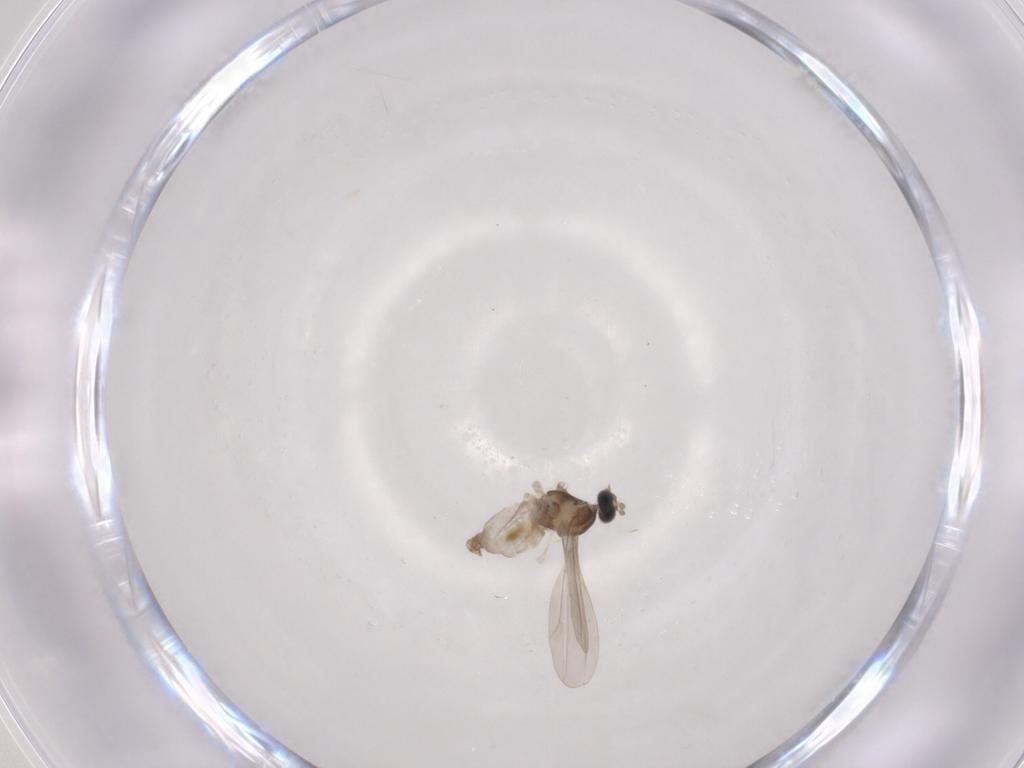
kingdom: Animalia
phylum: Arthropoda
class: Insecta
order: Diptera
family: Cecidomyiidae
